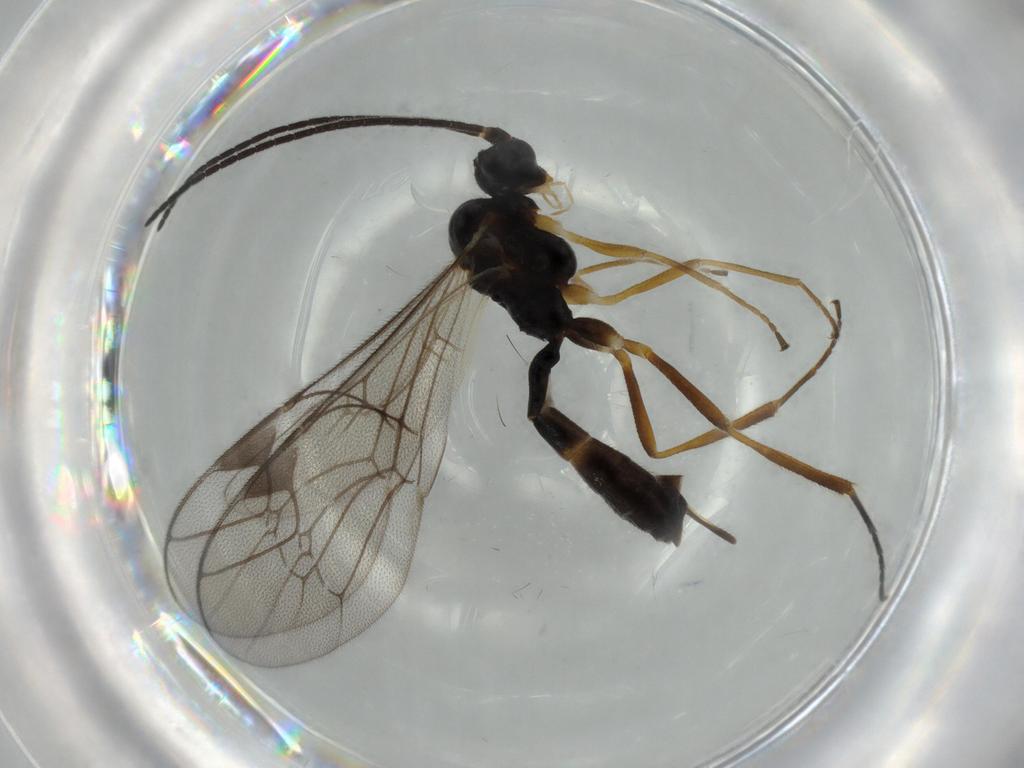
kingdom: Animalia
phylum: Arthropoda
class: Insecta
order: Hymenoptera
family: Ichneumonidae
